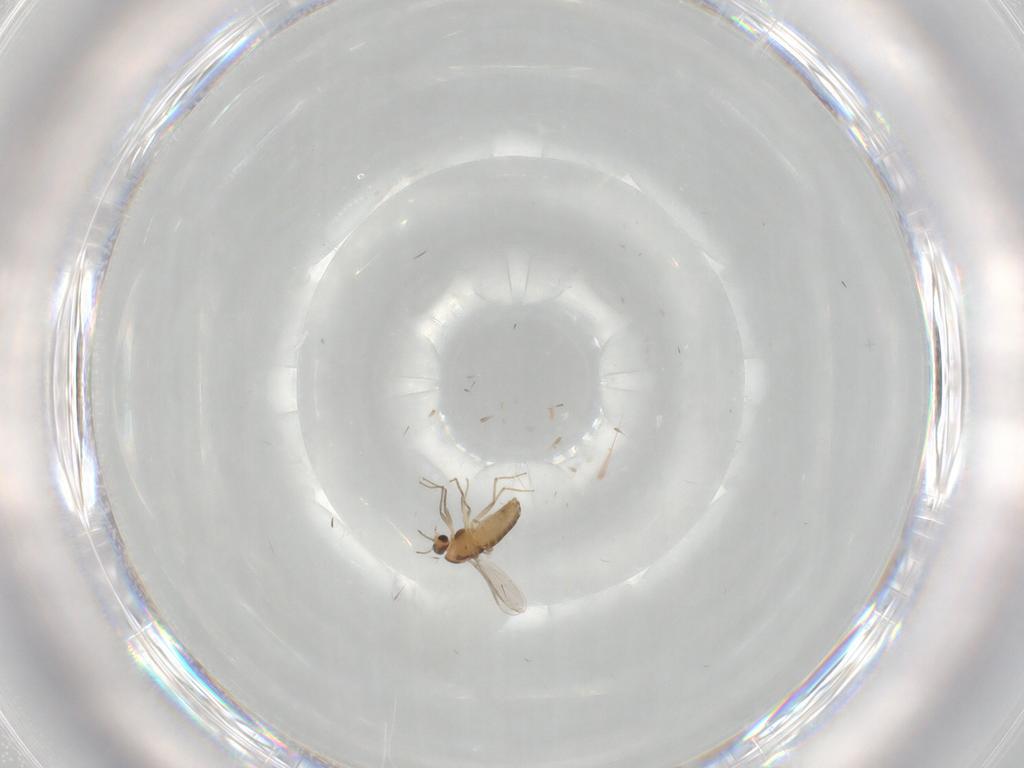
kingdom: Animalia
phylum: Arthropoda
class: Insecta
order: Diptera
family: Chironomidae
